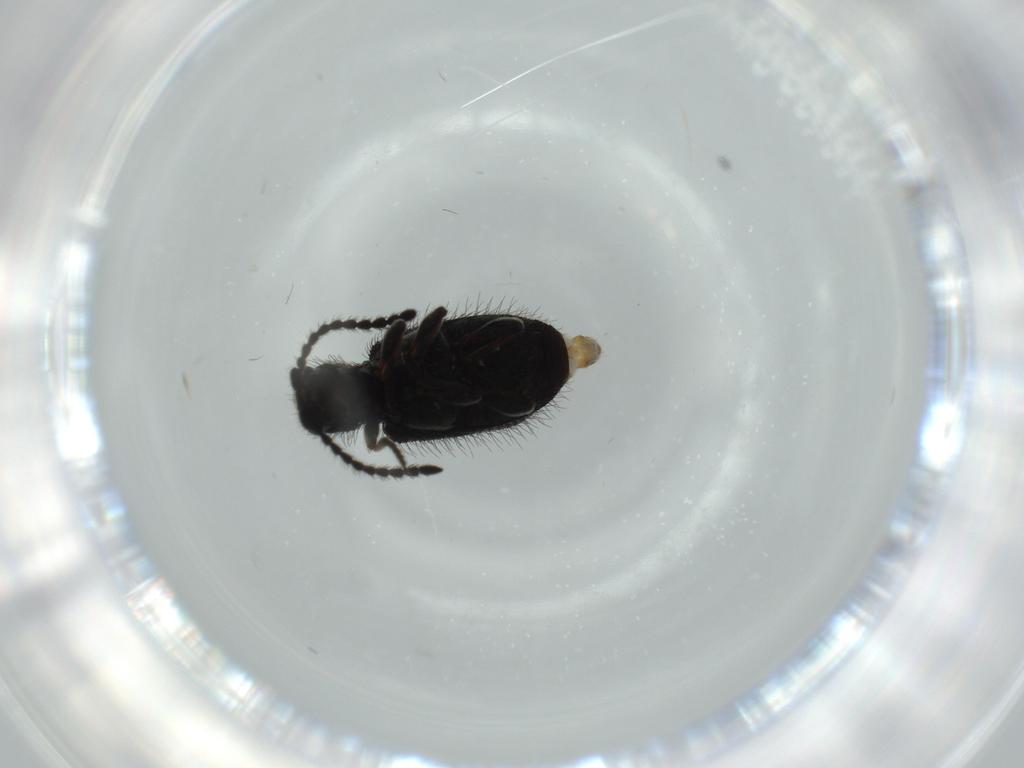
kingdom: Animalia
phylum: Arthropoda
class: Insecta
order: Coleoptera
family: Ptinidae
